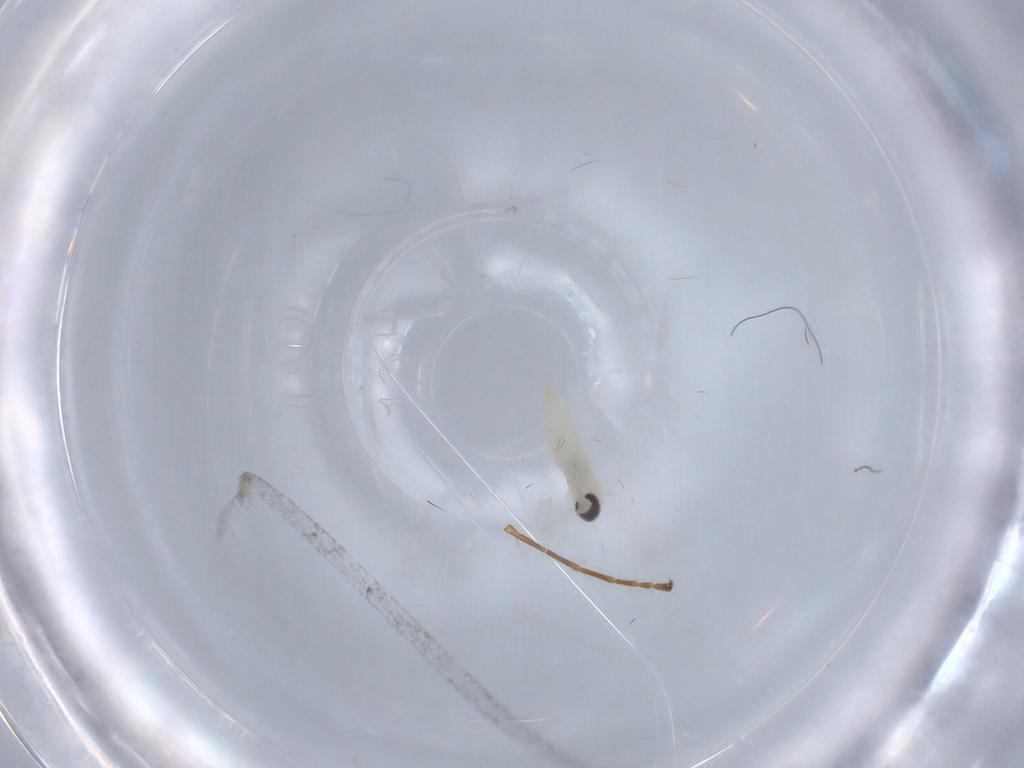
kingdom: Animalia
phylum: Arthropoda
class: Insecta
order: Diptera
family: Cecidomyiidae
